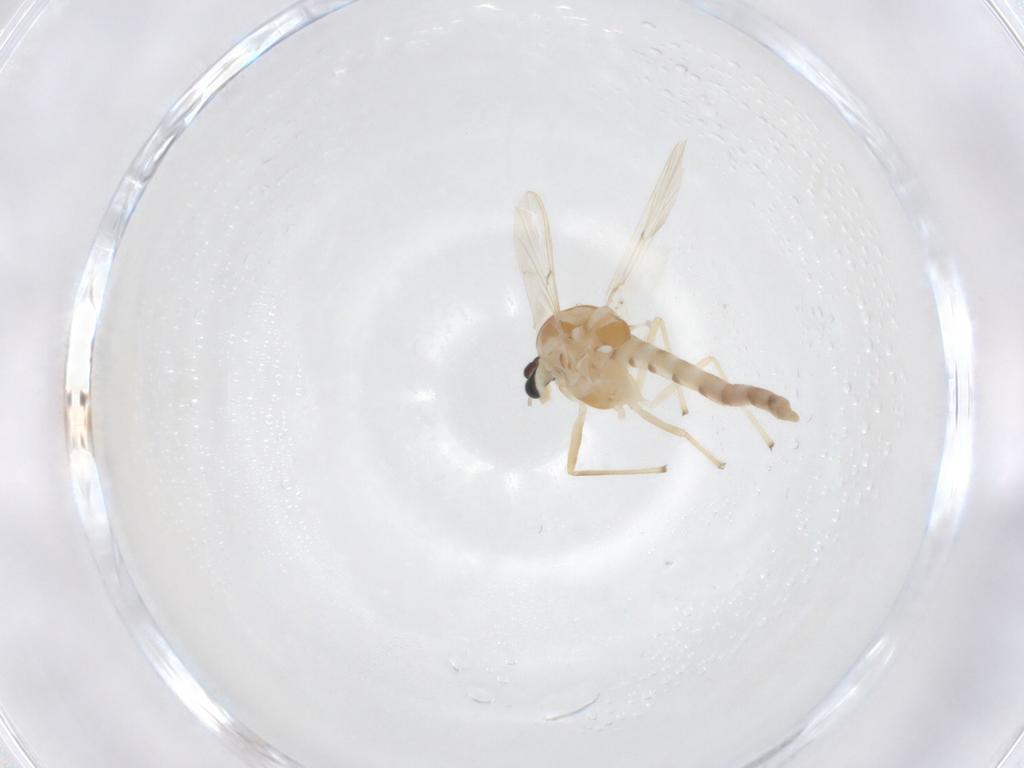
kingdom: Animalia
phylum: Arthropoda
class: Insecta
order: Diptera
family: Chironomidae
